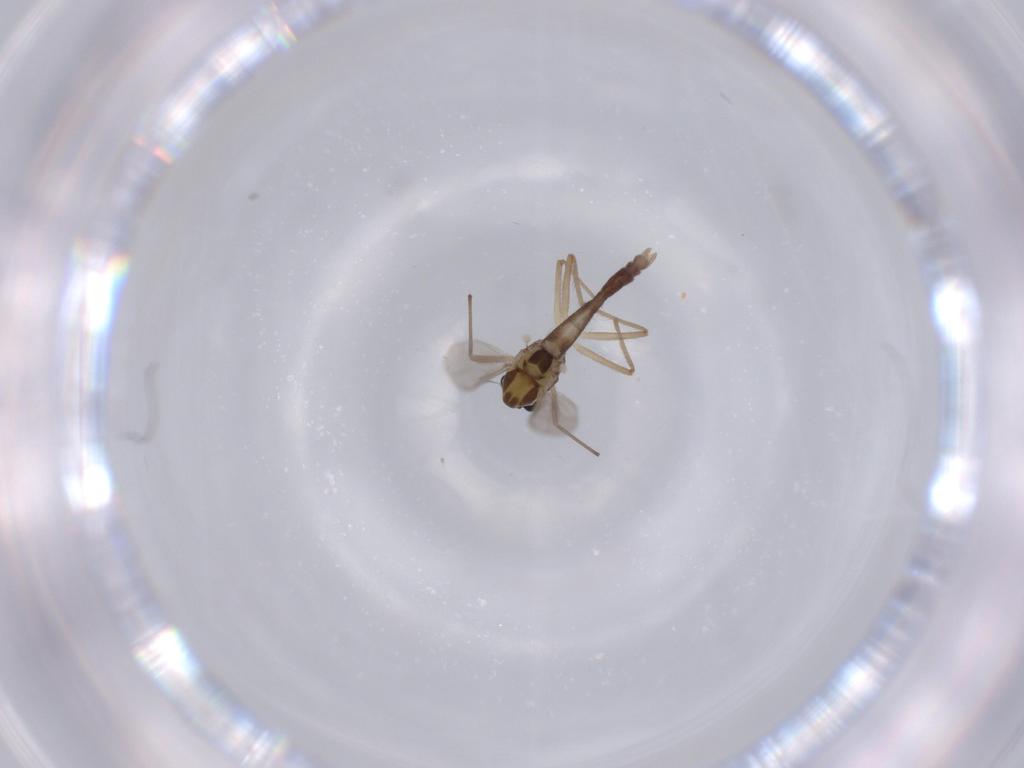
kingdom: Animalia
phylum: Arthropoda
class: Insecta
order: Diptera
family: Chironomidae
